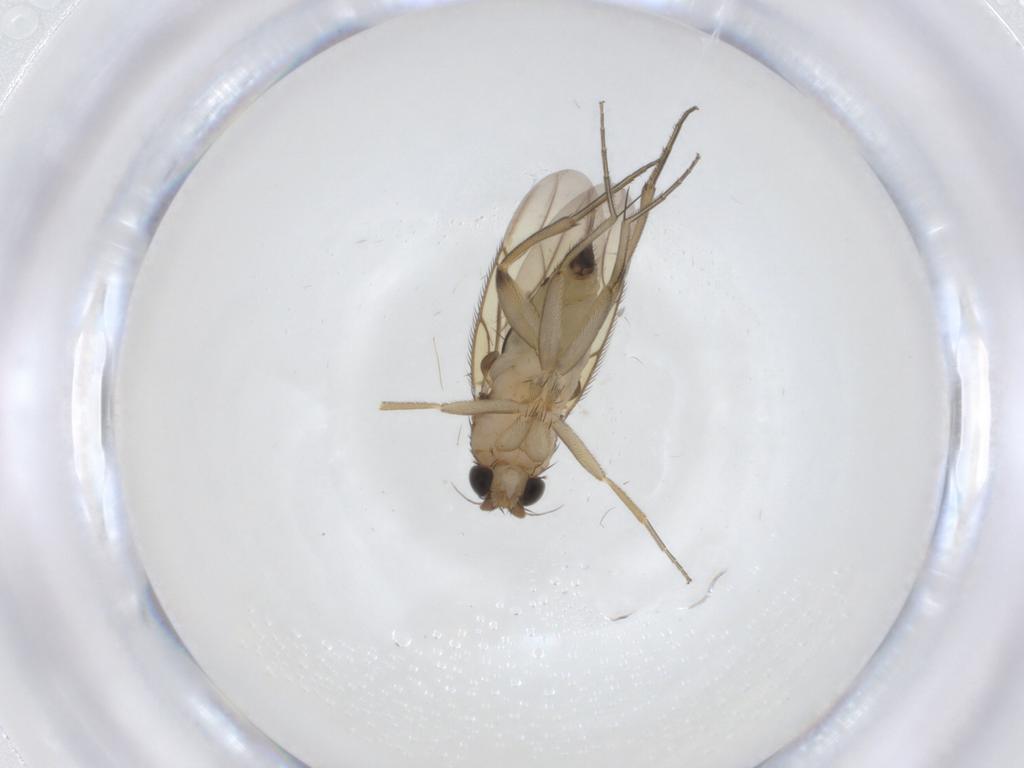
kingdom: Animalia
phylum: Arthropoda
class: Insecta
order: Diptera
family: Phoridae
